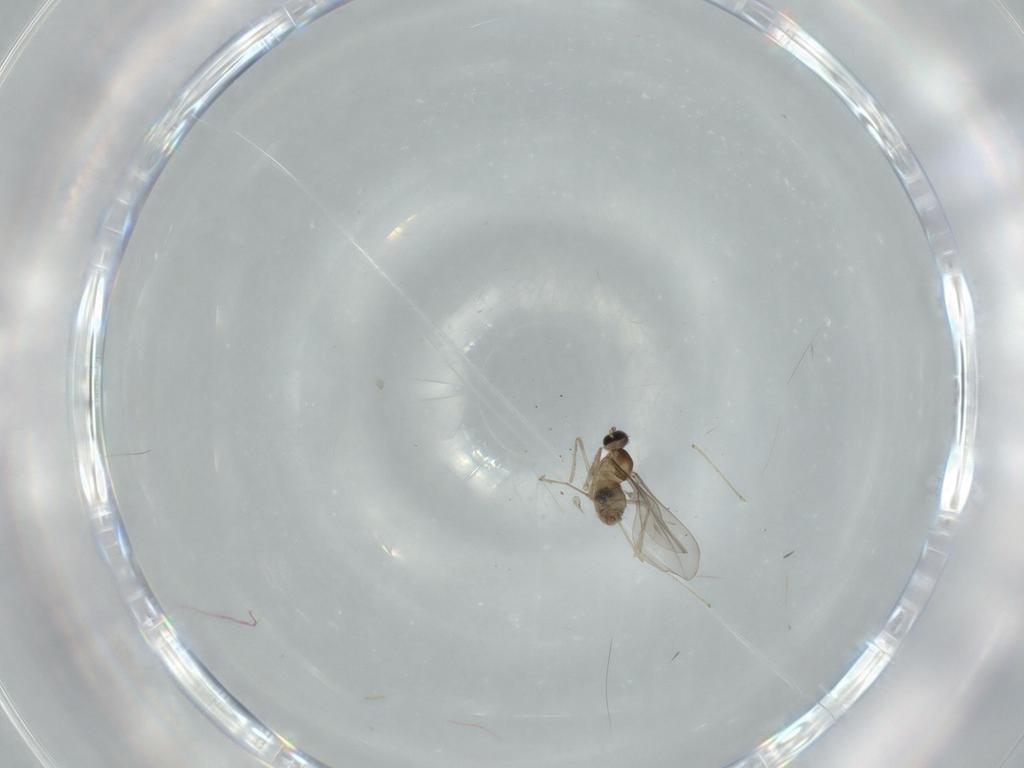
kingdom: Animalia
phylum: Arthropoda
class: Insecta
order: Diptera
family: Cecidomyiidae
